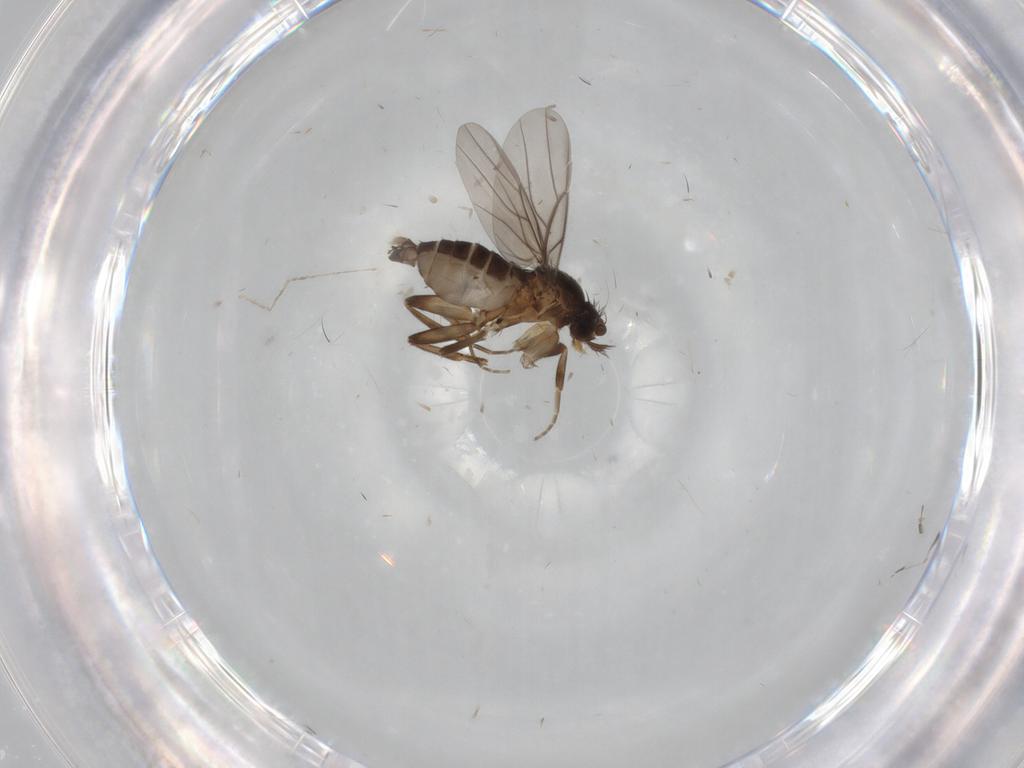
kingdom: Animalia
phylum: Arthropoda
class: Insecta
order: Diptera
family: Cecidomyiidae
